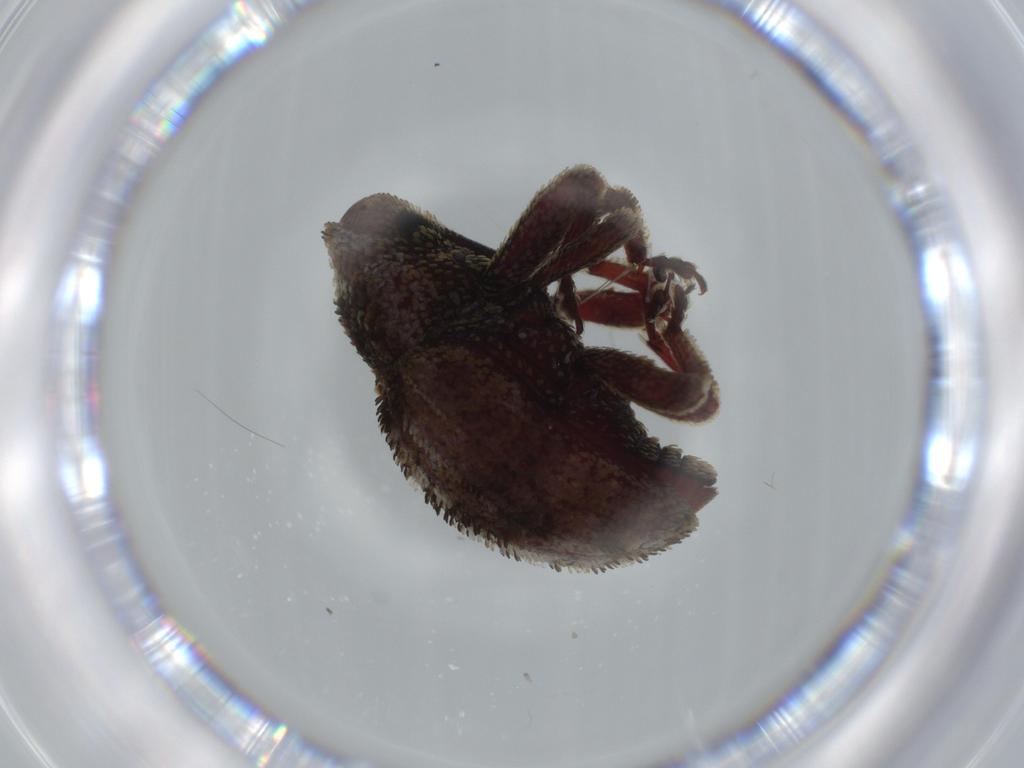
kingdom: Animalia
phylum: Arthropoda
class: Insecta
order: Coleoptera
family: Curculionidae
